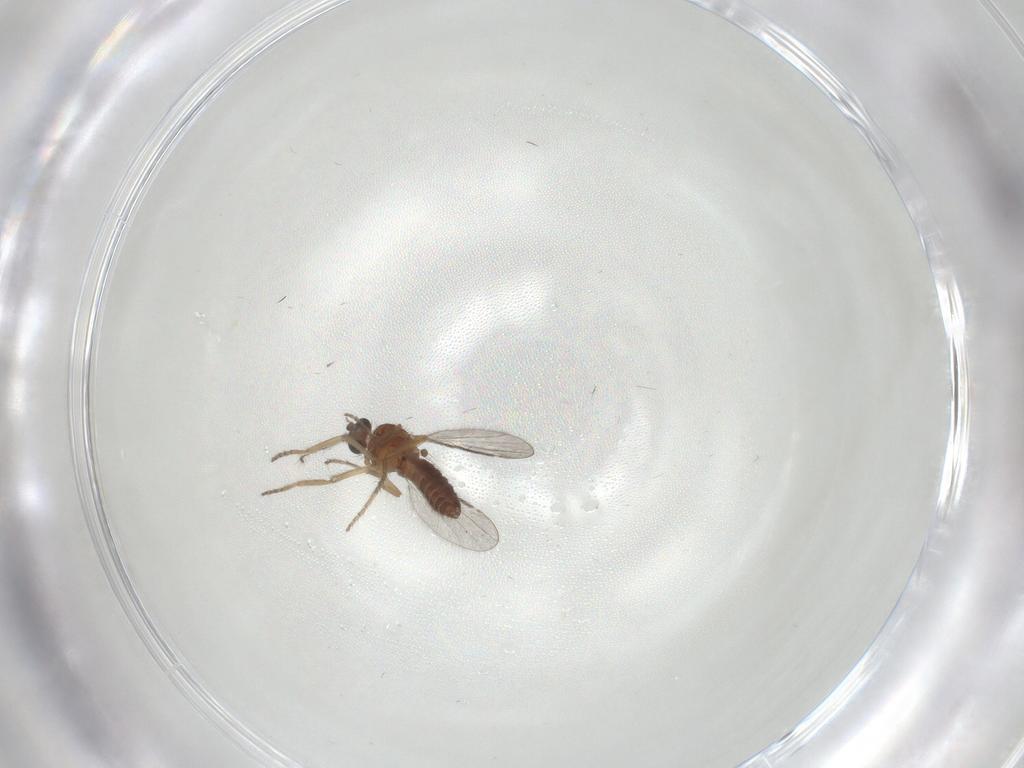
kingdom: Animalia
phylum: Arthropoda
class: Insecta
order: Diptera
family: Ceratopogonidae
